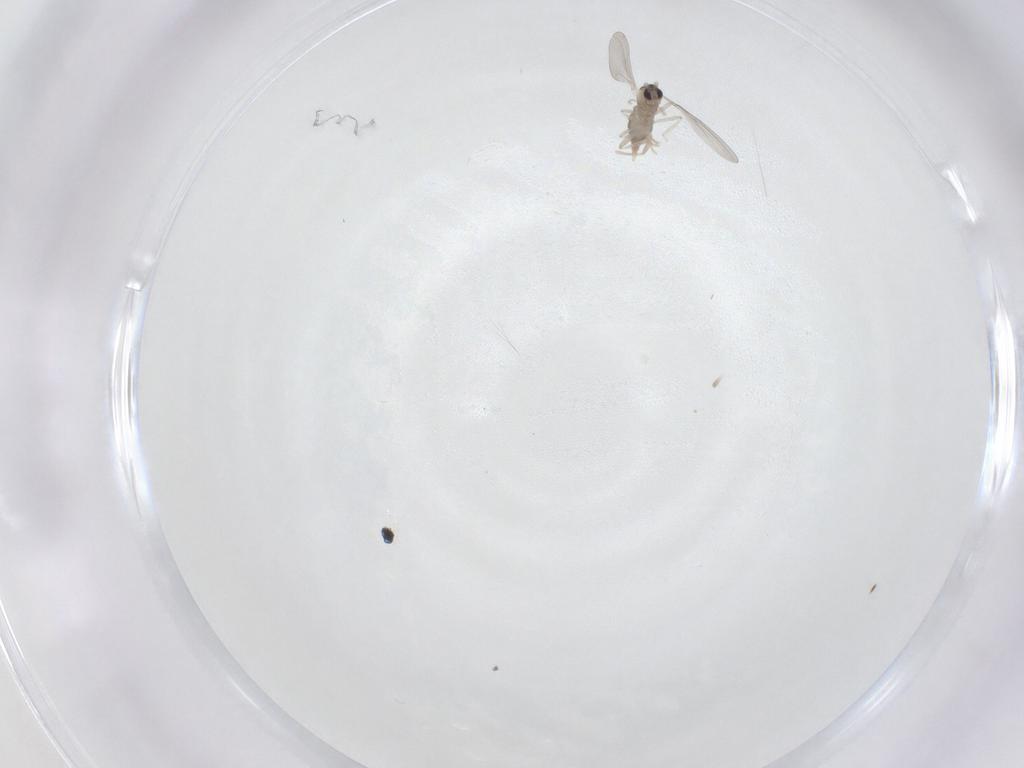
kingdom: Animalia
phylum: Arthropoda
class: Insecta
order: Diptera
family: Cecidomyiidae
